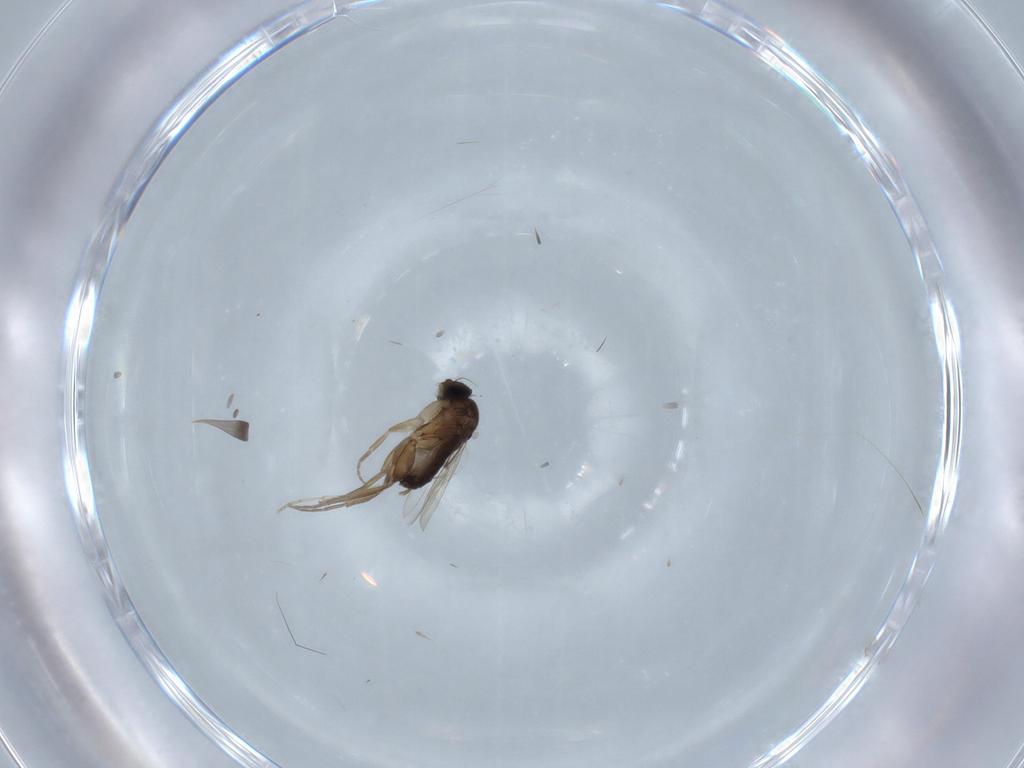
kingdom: Animalia
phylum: Arthropoda
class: Insecta
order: Diptera
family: Phoridae
